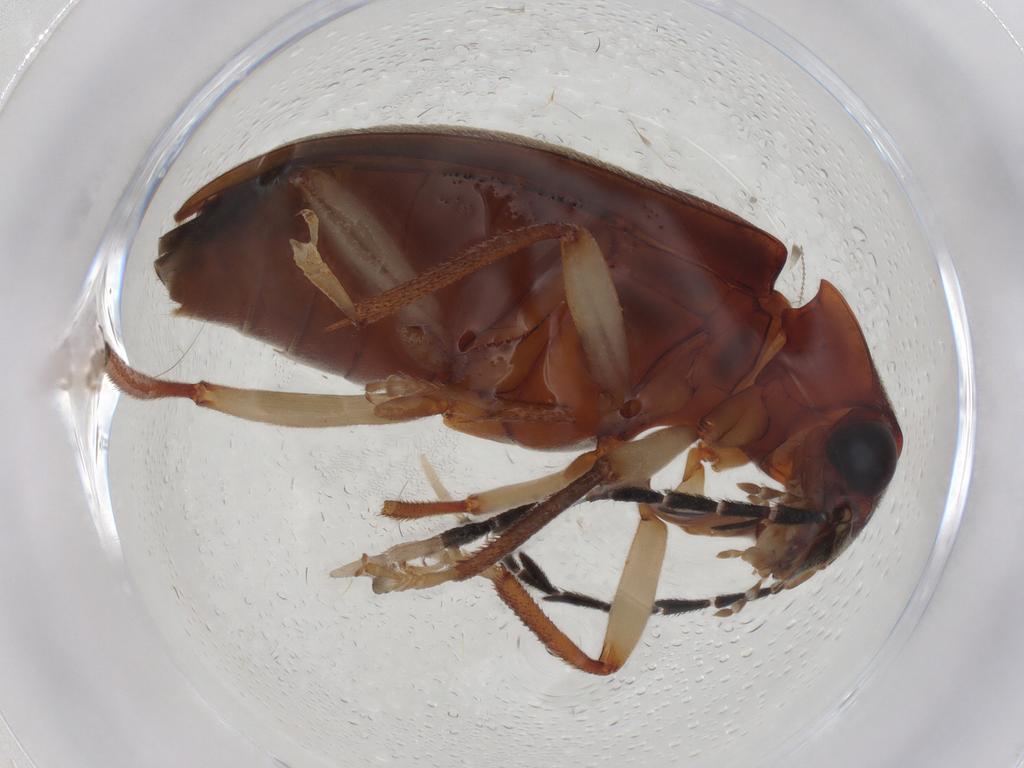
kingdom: Animalia
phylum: Arthropoda
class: Insecta
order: Coleoptera
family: Ptilodactylidae
